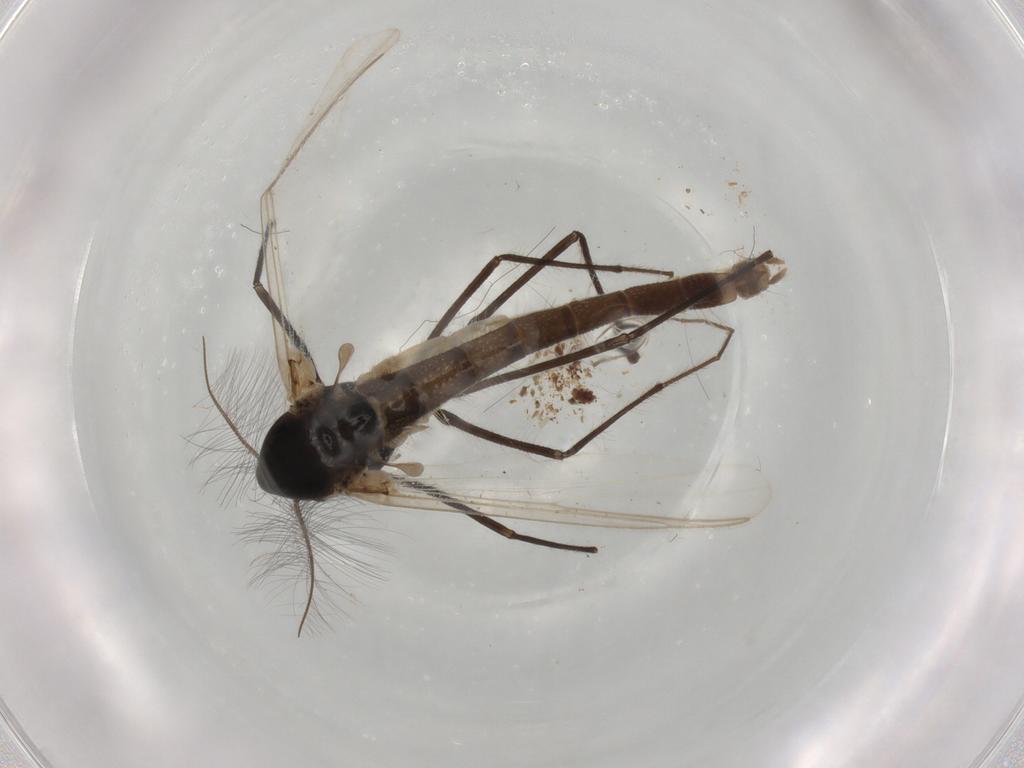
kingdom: Animalia
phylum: Arthropoda
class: Insecta
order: Diptera
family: Chironomidae
